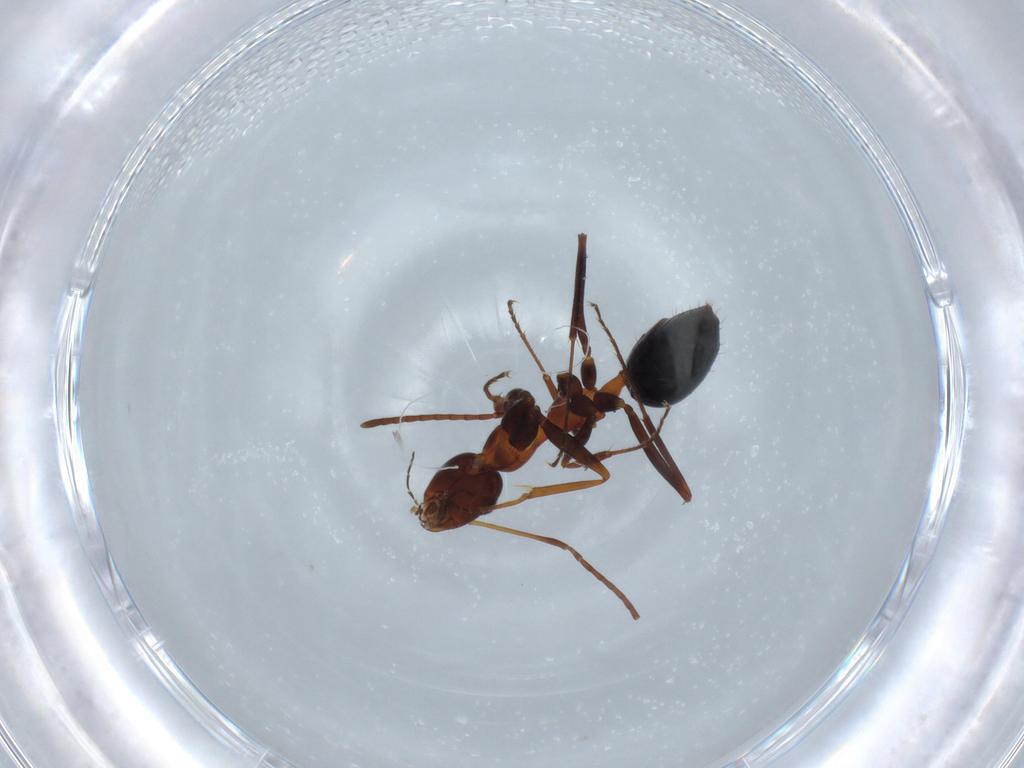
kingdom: Animalia
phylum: Arthropoda
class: Insecta
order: Hymenoptera
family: Formicidae
